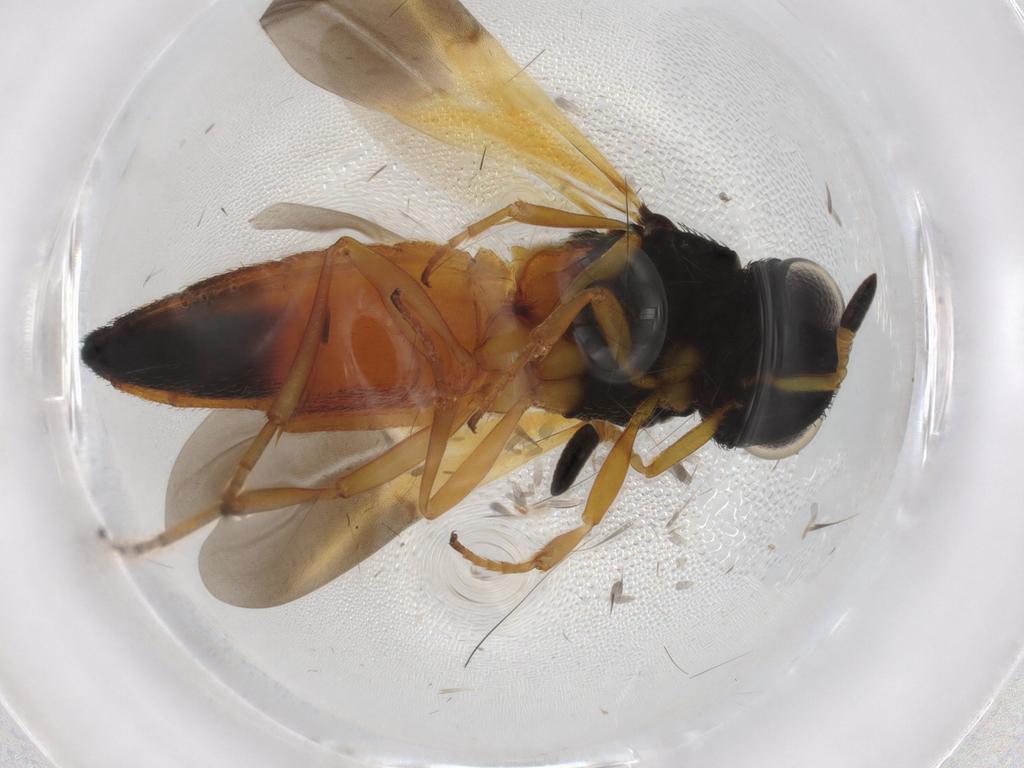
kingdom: Animalia
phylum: Arthropoda
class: Insecta
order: Hymenoptera
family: Scelionidae
